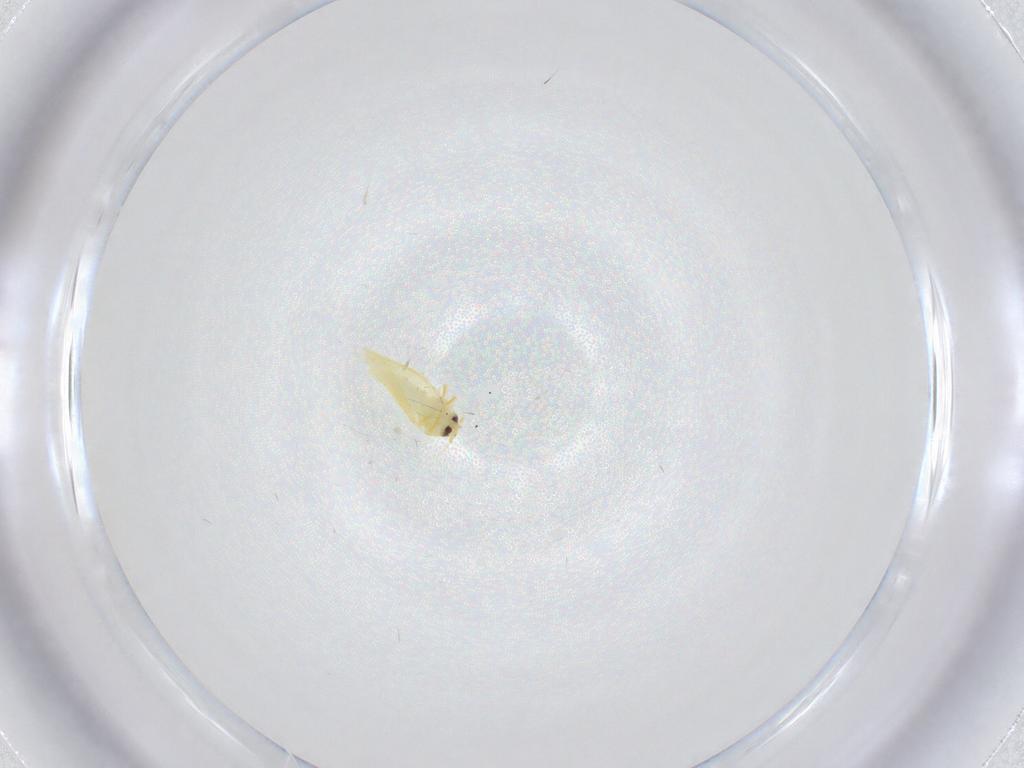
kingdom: Animalia
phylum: Arthropoda
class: Insecta
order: Hemiptera
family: Aleyrodidae
